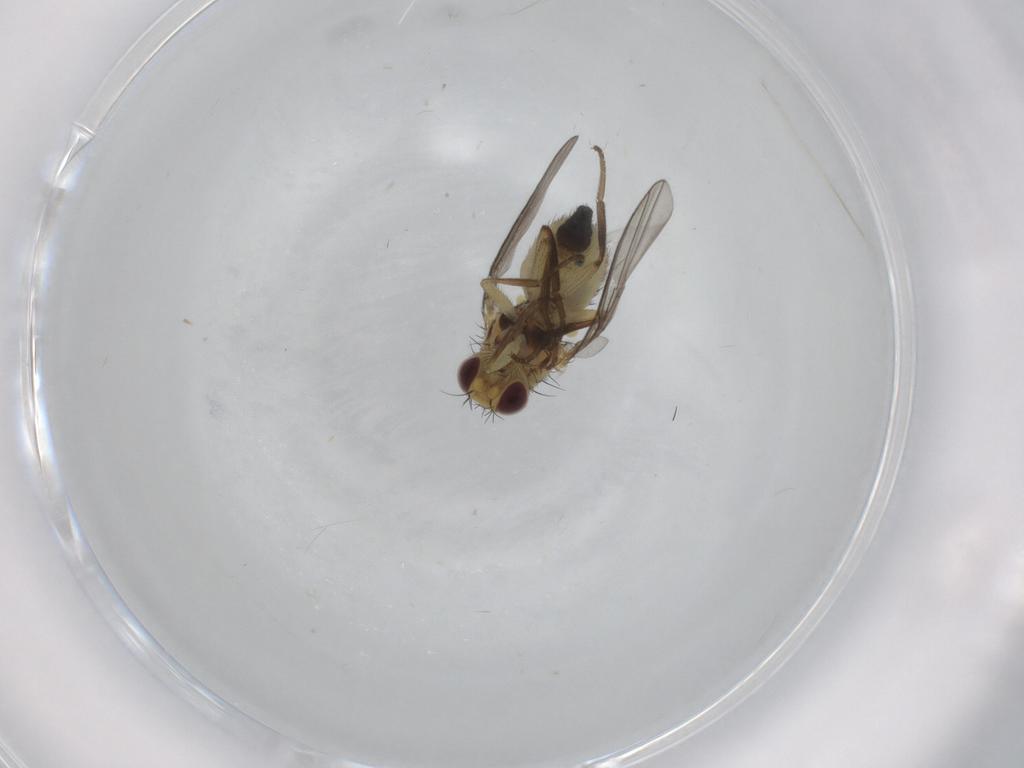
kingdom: Animalia
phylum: Arthropoda
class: Insecta
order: Diptera
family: Agromyzidae
